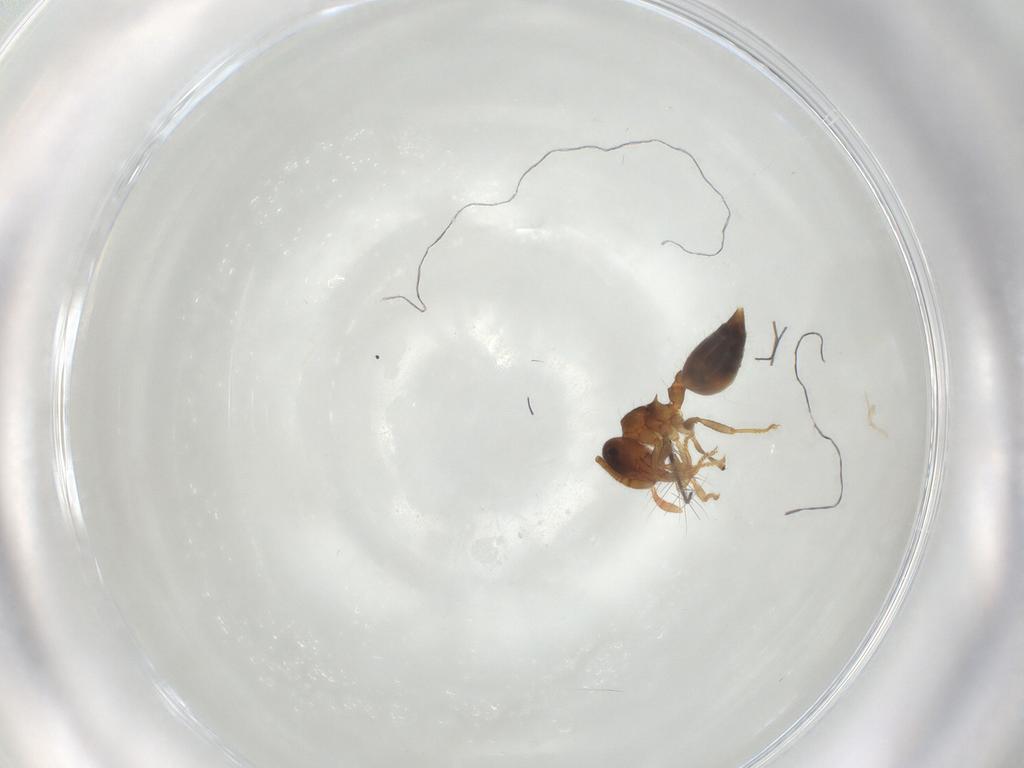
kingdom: Animalia
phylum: Arthropoda
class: Insecta
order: Hymenoptera
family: Formicidae
